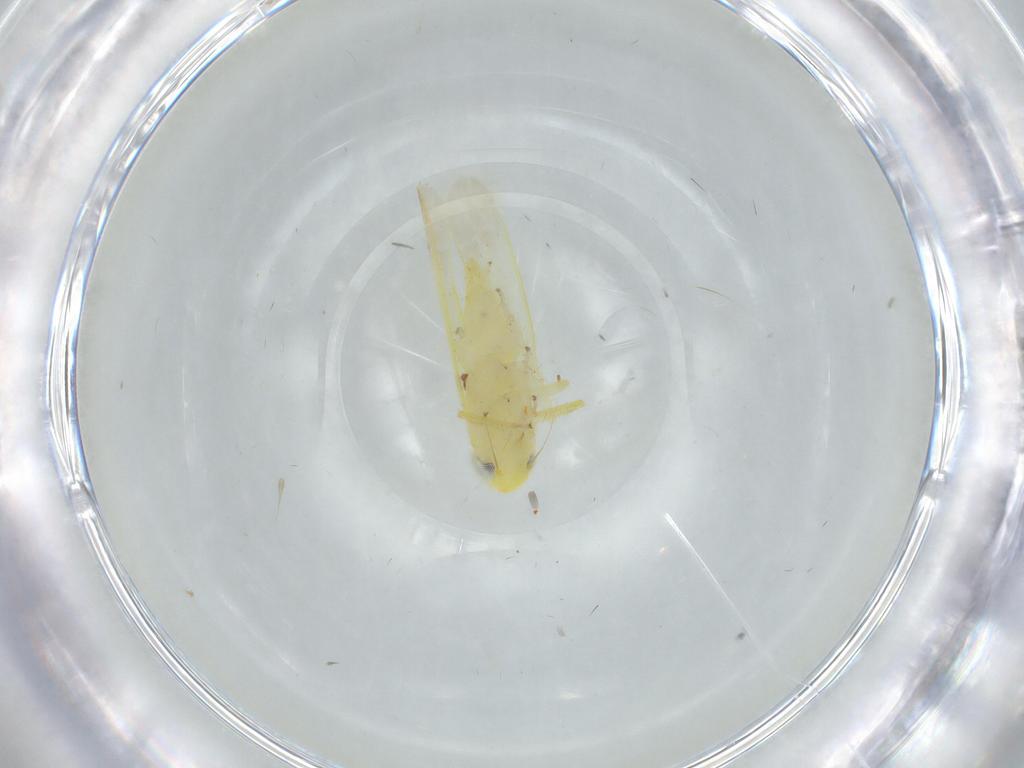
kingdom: Animalia
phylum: Arthropoda
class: Insecta
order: Hemiptera
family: Cicadellidae
